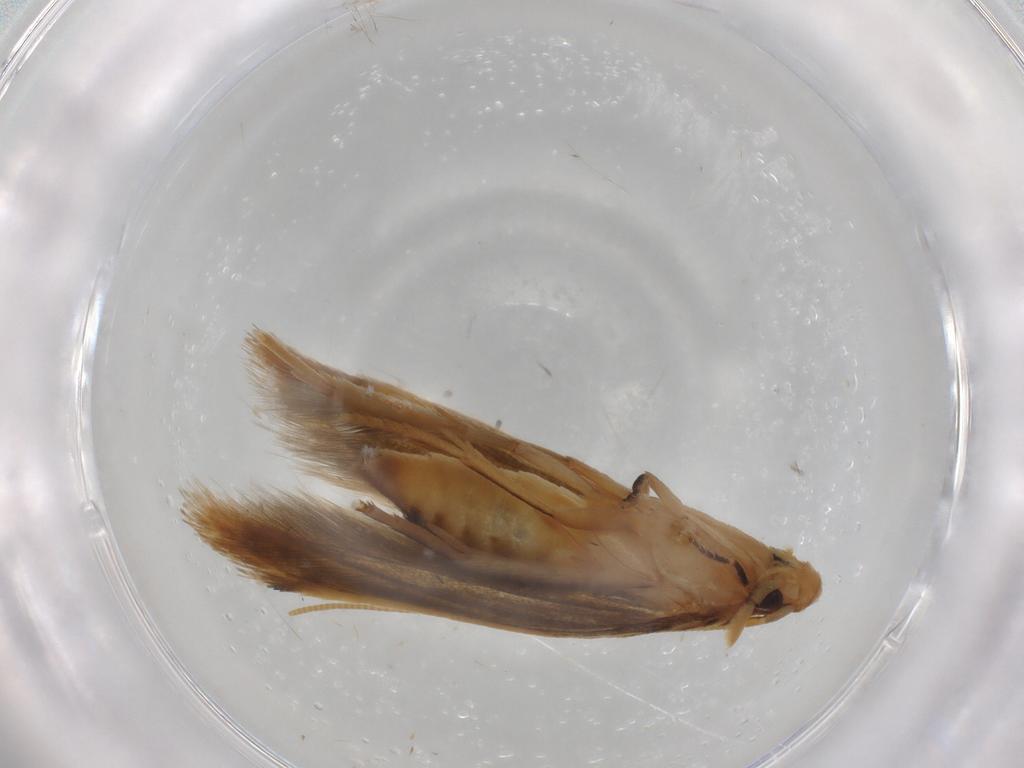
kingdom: Animalia
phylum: Arthropoda
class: Insecta
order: Lepidoptera
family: Tineidae
